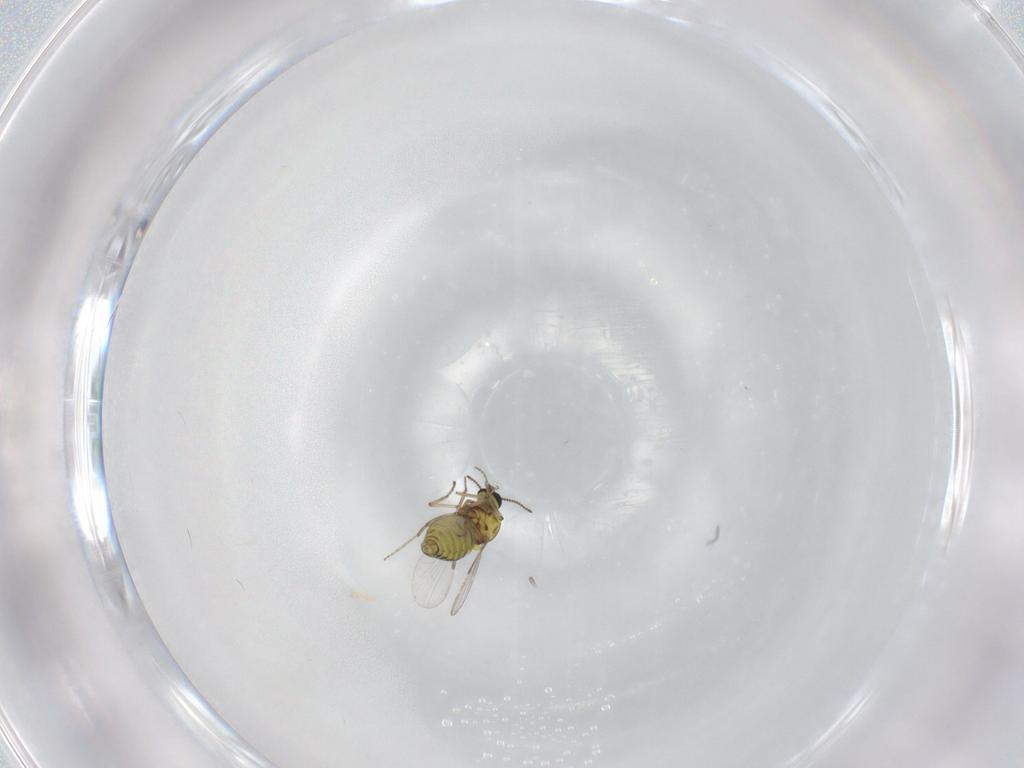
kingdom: Animalia
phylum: Arthropoda
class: Insecta
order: Diptera
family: Ceratopogonidae
